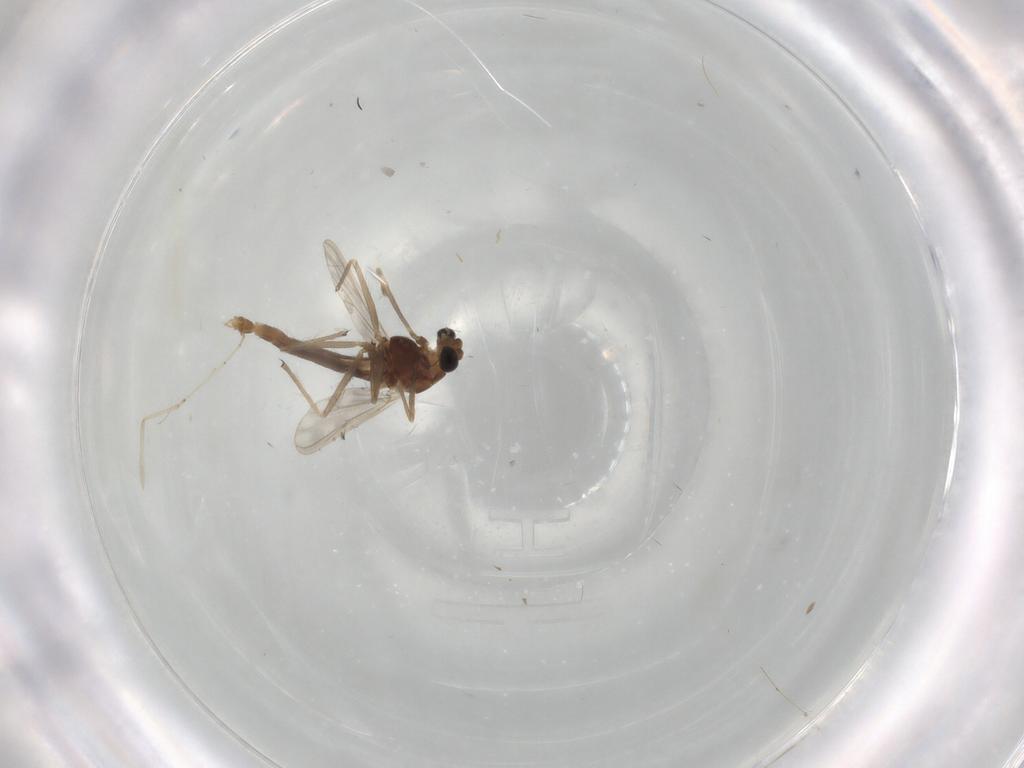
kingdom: Animalia
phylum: Arthropoda
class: Insecta
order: Diptera
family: Chironomidae
